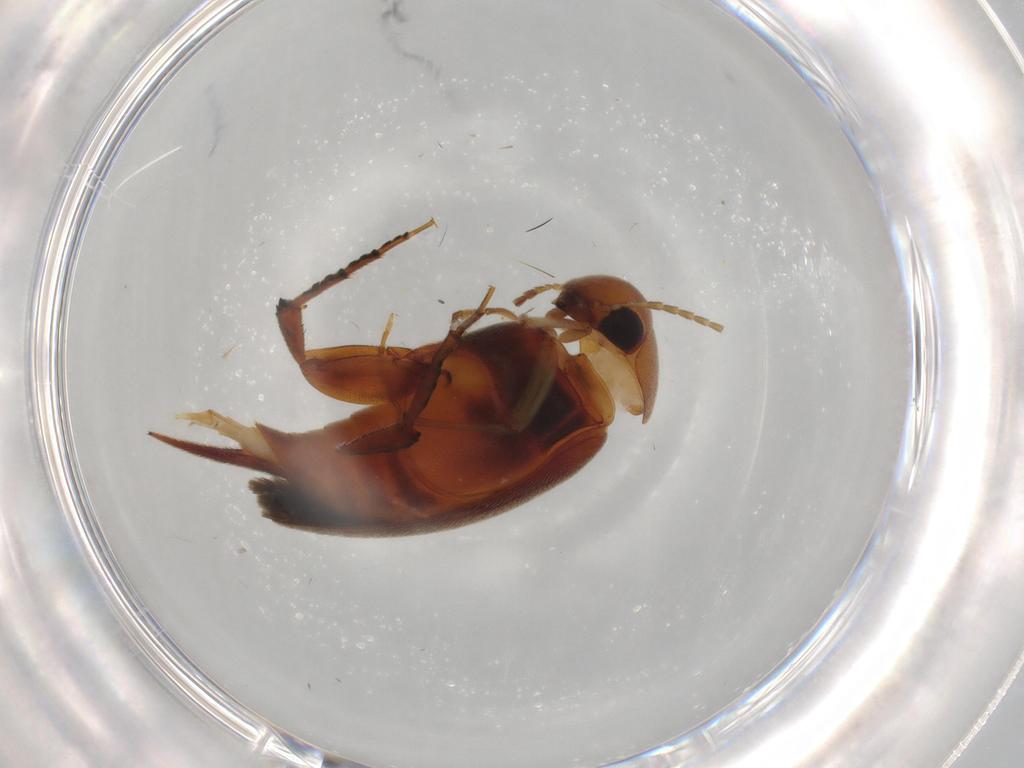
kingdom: Animalia
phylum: Arthropoda
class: Insecta
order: Coleoptera
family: Mordellidae
